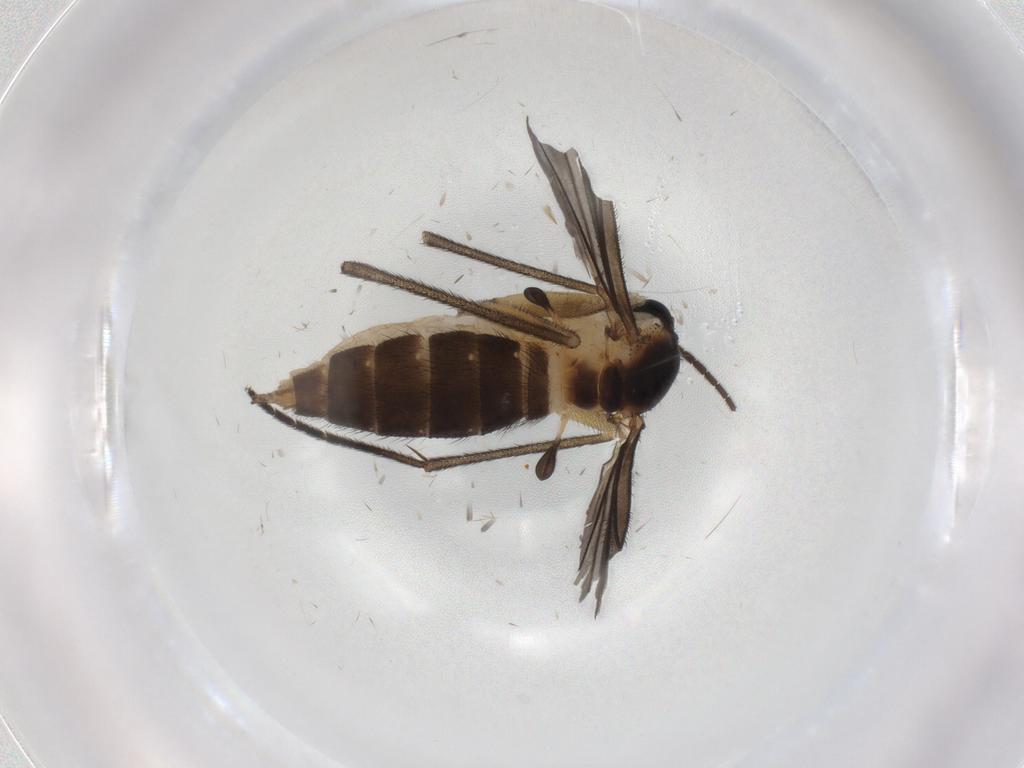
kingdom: Animalia
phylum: Arthropoda
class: Insecta
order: Diptera
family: Sciaridae
